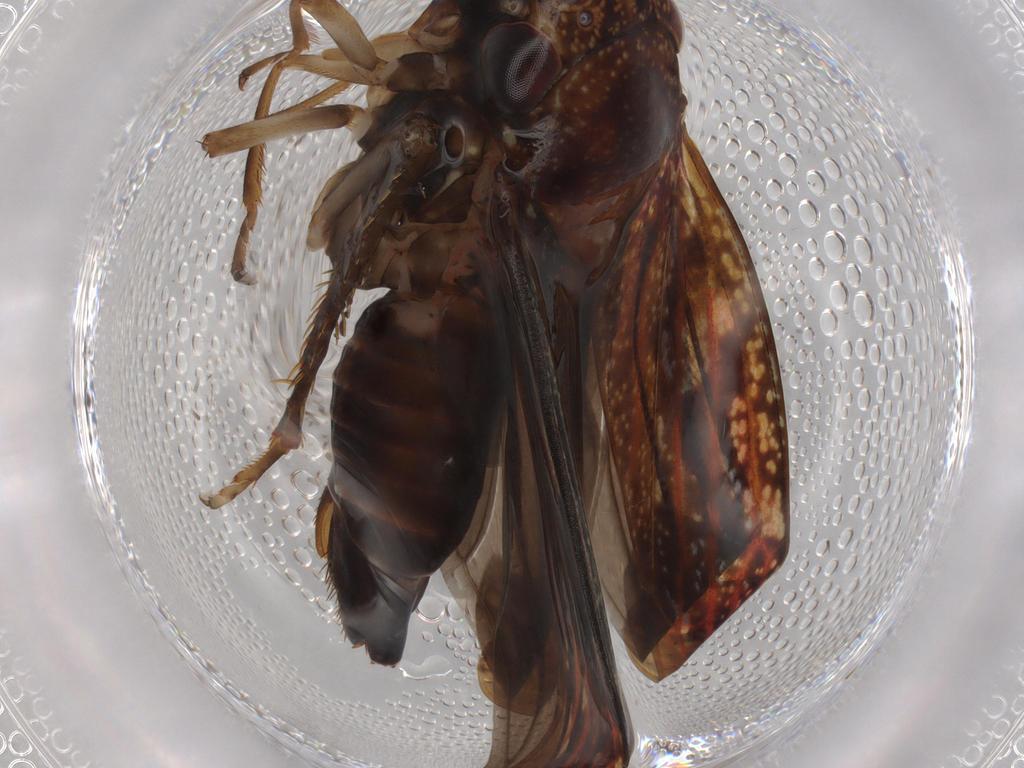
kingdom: Animalia
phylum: Arthropoda
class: Insecta
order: Hemiptera
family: Cicadellidae
